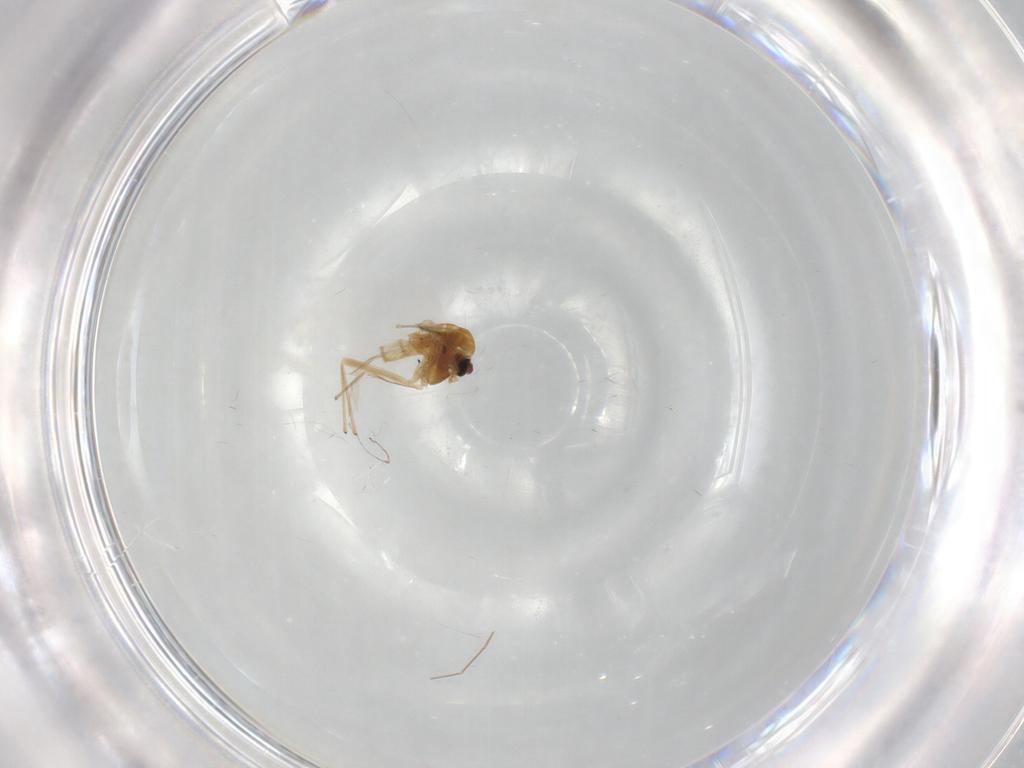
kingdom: Animalia
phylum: Arthropoda
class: Insecta
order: Diptera
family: Chironomidae
